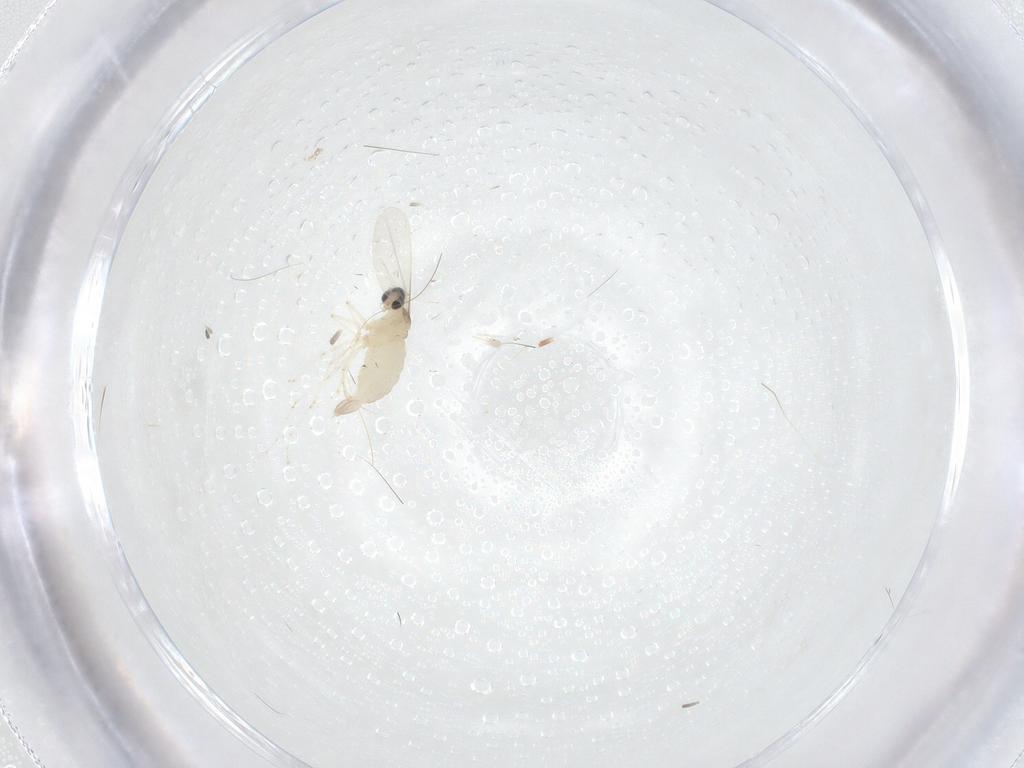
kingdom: Animalia
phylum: Arthropoda
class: Insecta
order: Diptera
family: Cecidomyiidae
